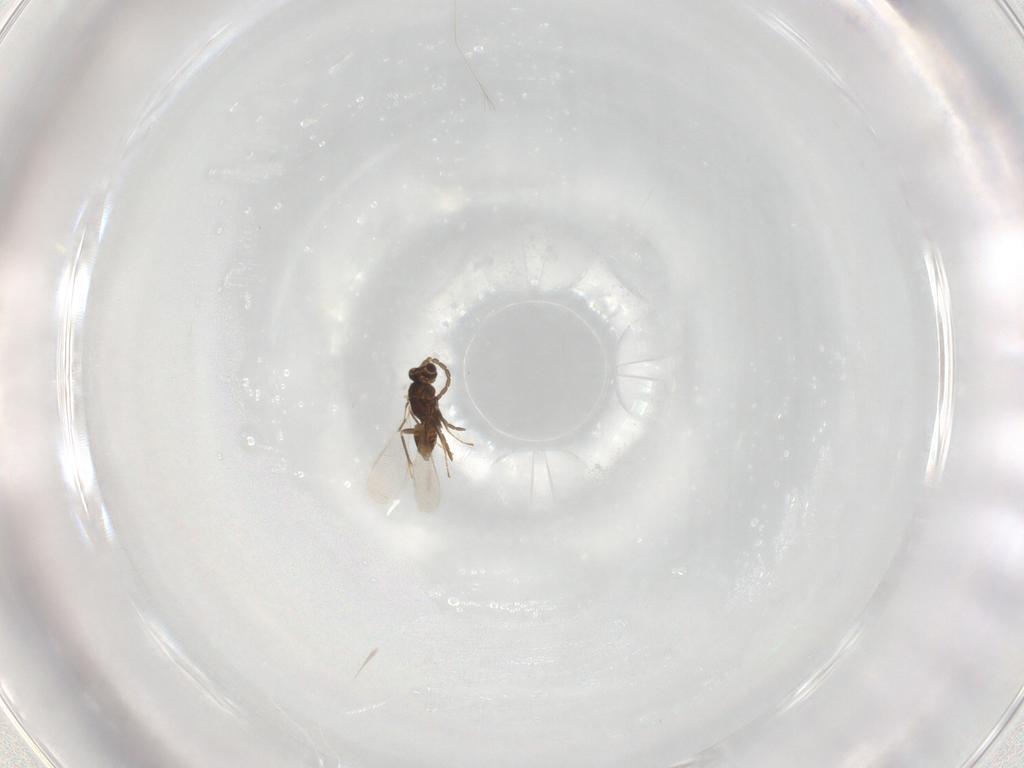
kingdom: Animalia
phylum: Arthropoda
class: Insecta
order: Hymenoptera
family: Mymaridae
